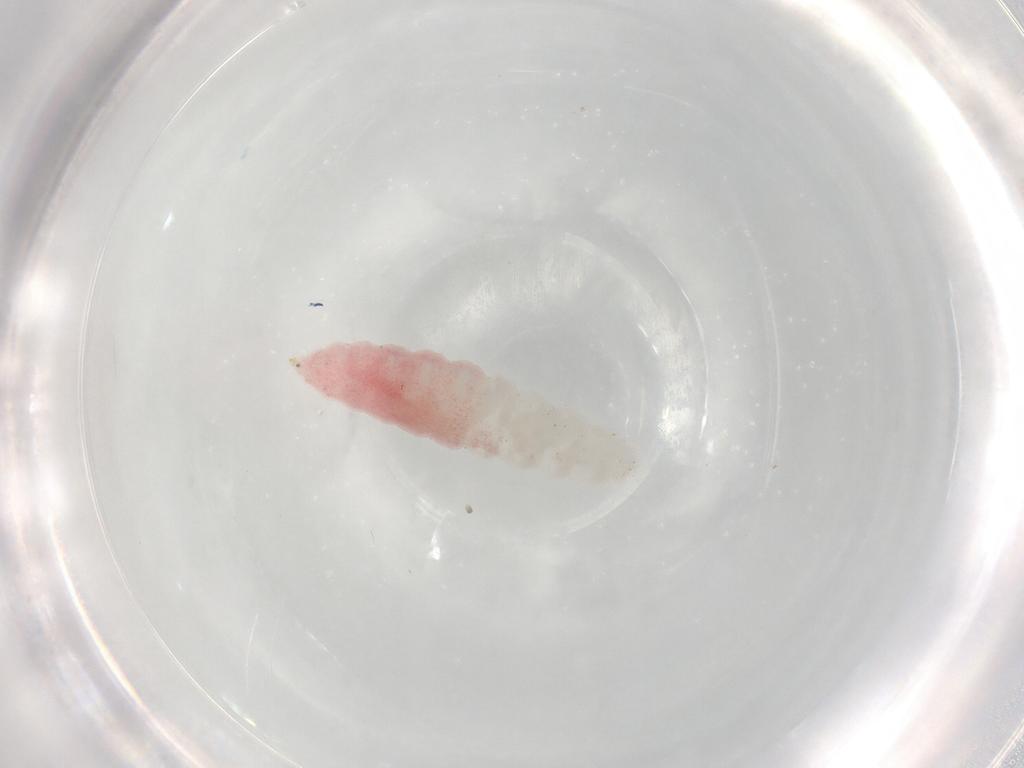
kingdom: Animalia
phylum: Arthropoda
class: Insecta
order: Diptera
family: Cecidomyiidae
